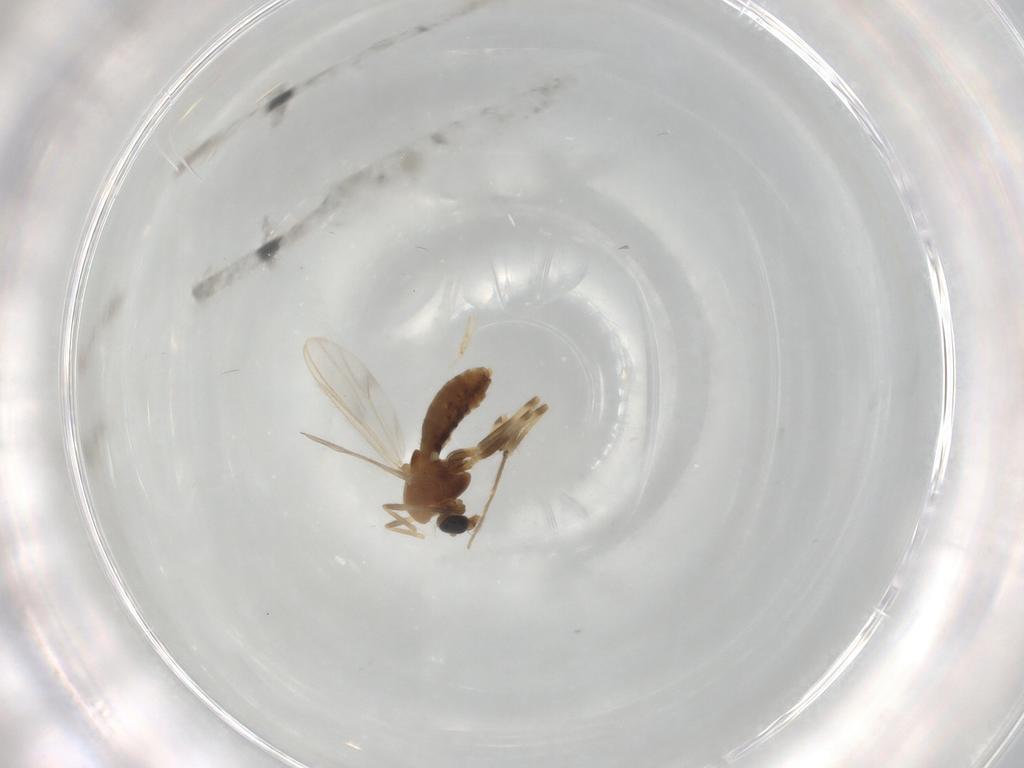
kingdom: Animalia
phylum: Arthropoda
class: Insecta
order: Diptera
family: Chironomidae
